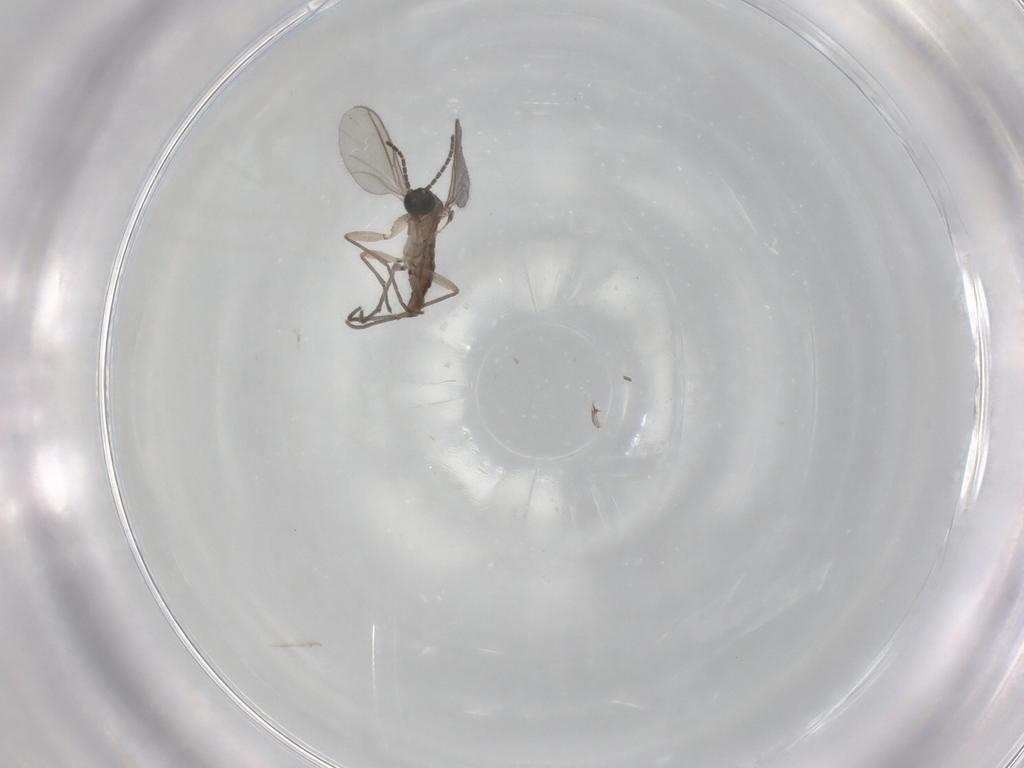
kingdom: Animalia
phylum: Arthropoda
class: Insecta
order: Diptera
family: Sciaridae
